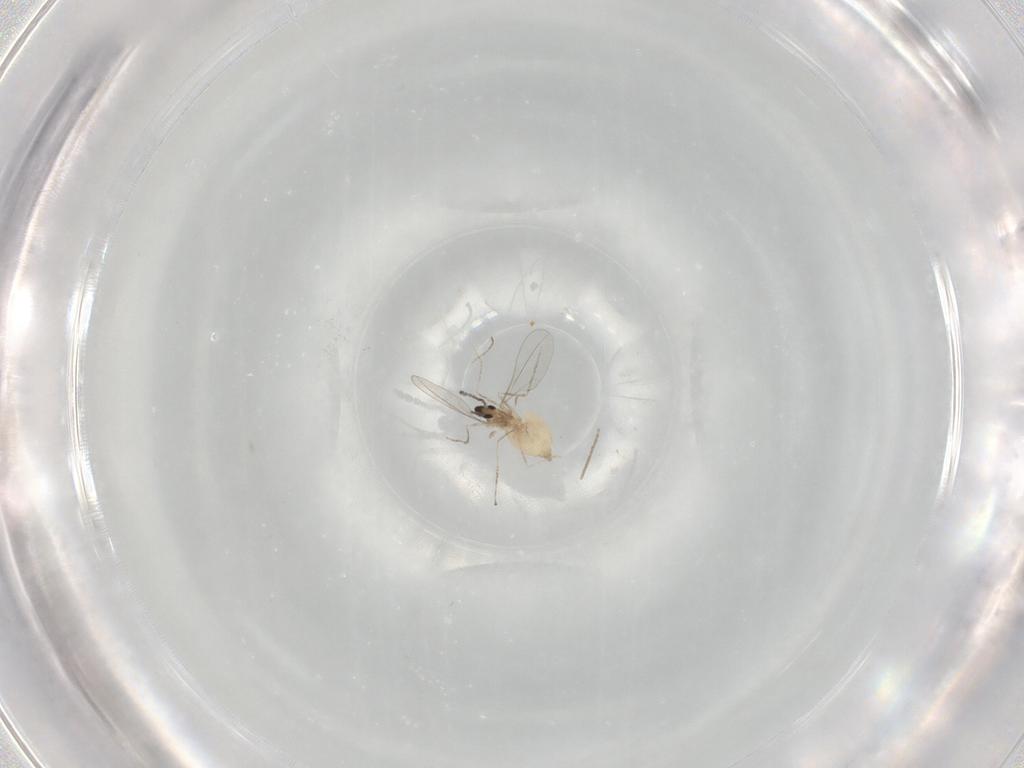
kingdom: Animalia
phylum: Arthropoda
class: Insecta
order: Diptera
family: Cecidomyiidae
